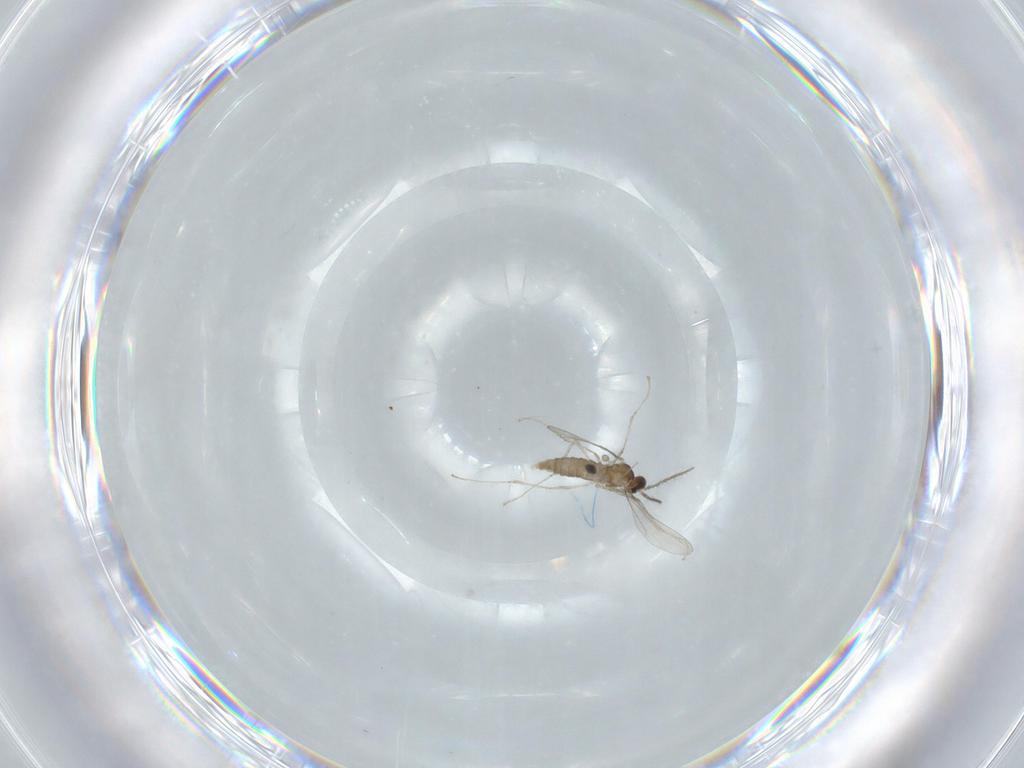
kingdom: Animalia
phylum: Arthropoda
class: Insecta
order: Diptera
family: Dolichopodidae
